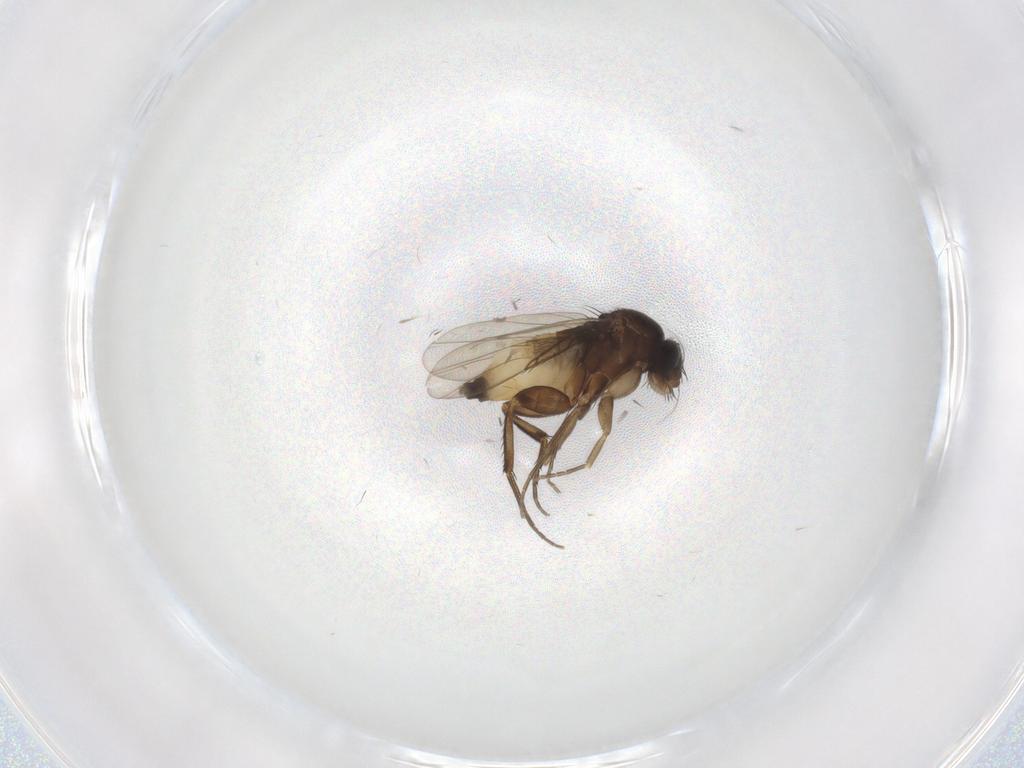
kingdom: Animalia
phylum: Arthropoda
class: Insecta
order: Diptera
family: Phoridae
